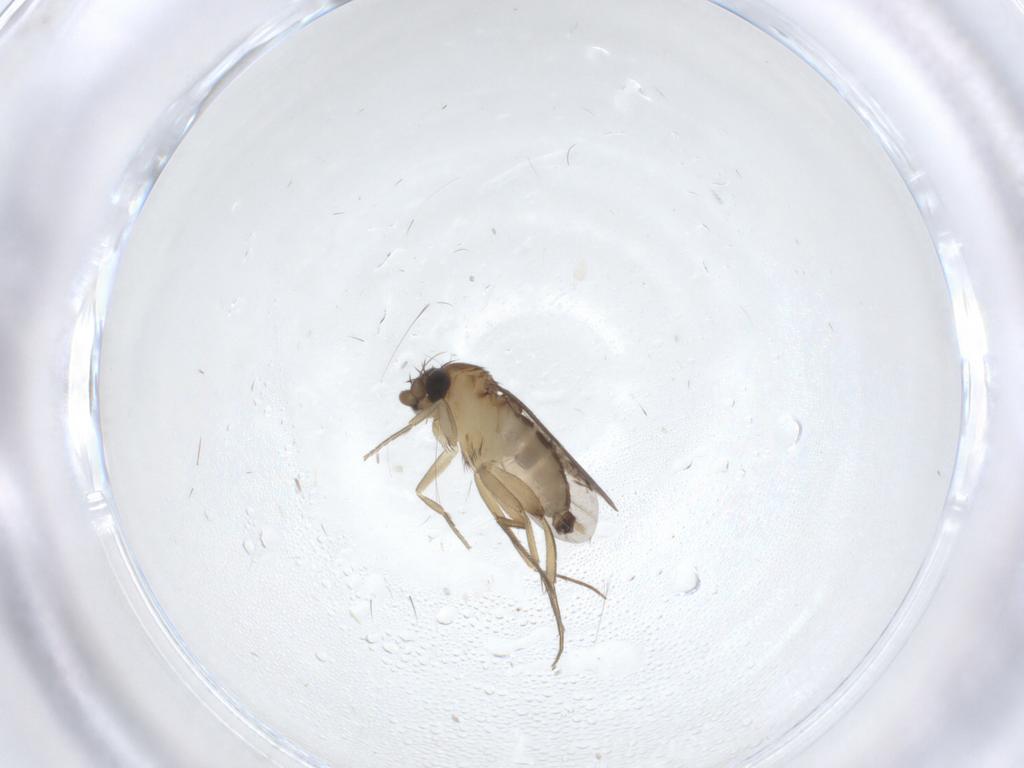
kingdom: Animalia
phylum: Arthropoda
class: Insecta
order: Diptera
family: Phoridae
